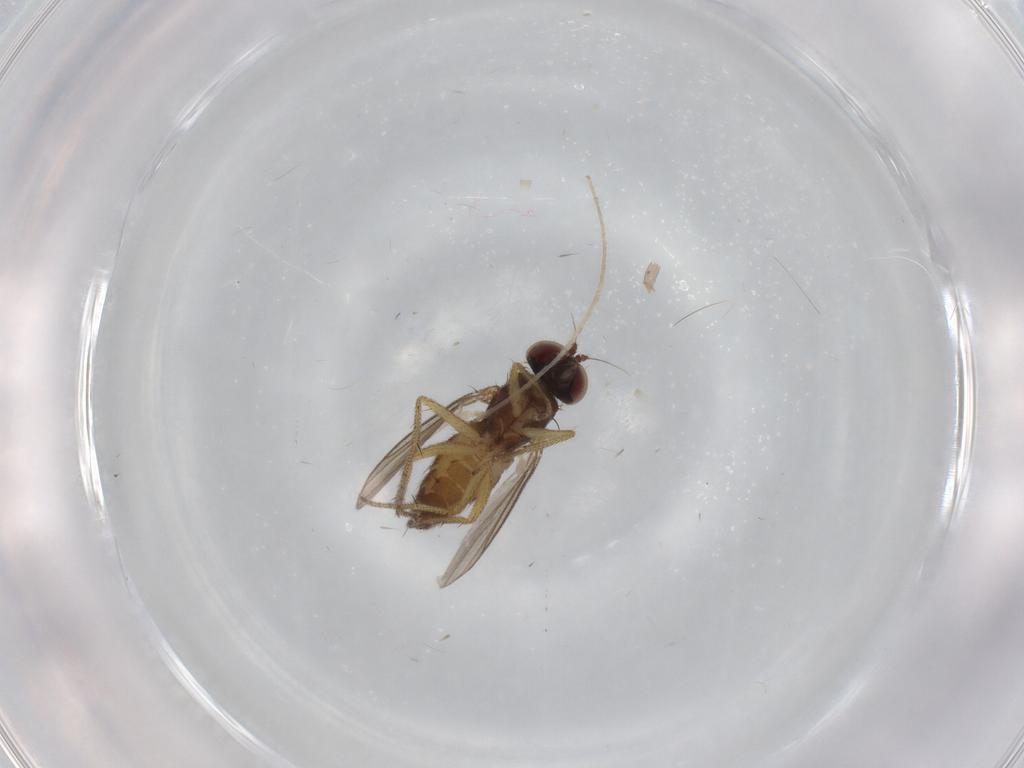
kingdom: Animalia
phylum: Arthropoda
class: Insecta
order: Diptera
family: Dolichopodidae
